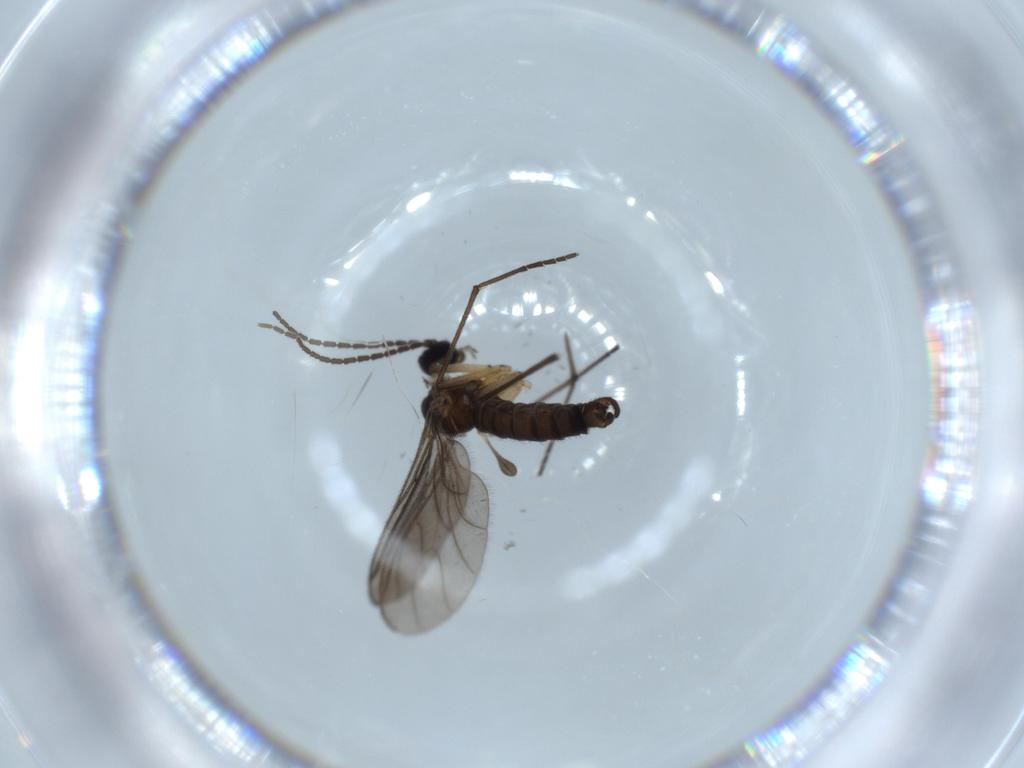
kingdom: Animalia
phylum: Arthropoda
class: Insecta
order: Diptera
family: Sciaridae
